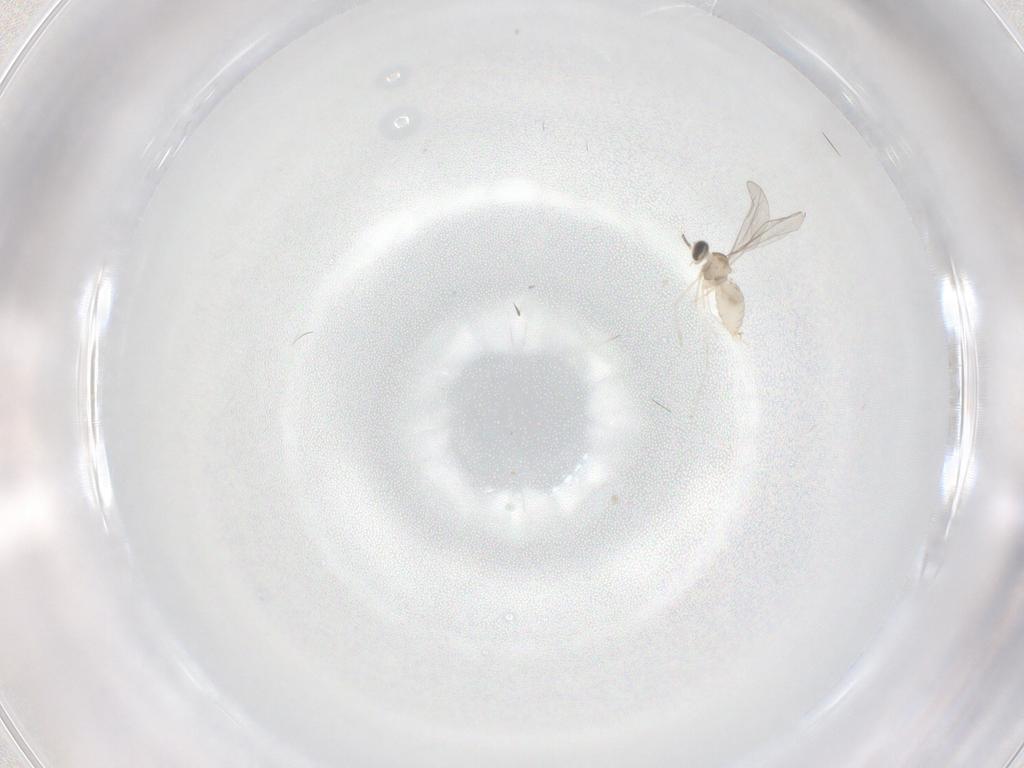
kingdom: Animalia
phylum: Arthropoda
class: Insecta
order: Diptera
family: Cecidomyiidae
